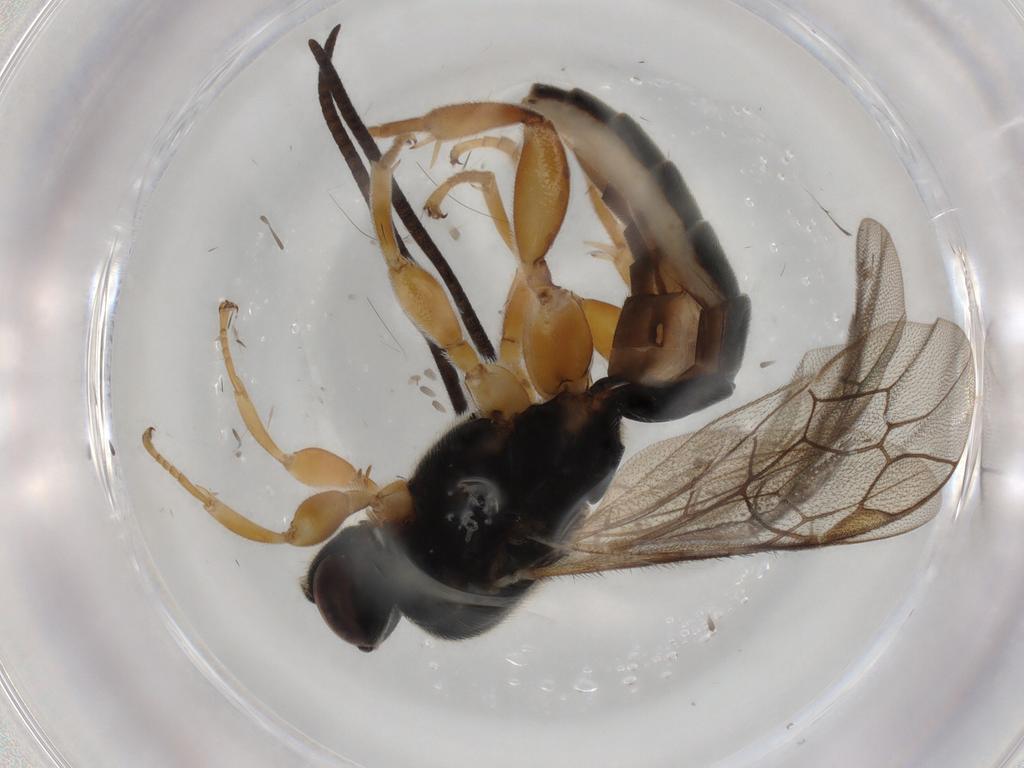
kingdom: Animalia
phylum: Arthropoda
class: Insecta
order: Hymenoptera
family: Ichneumonidae
